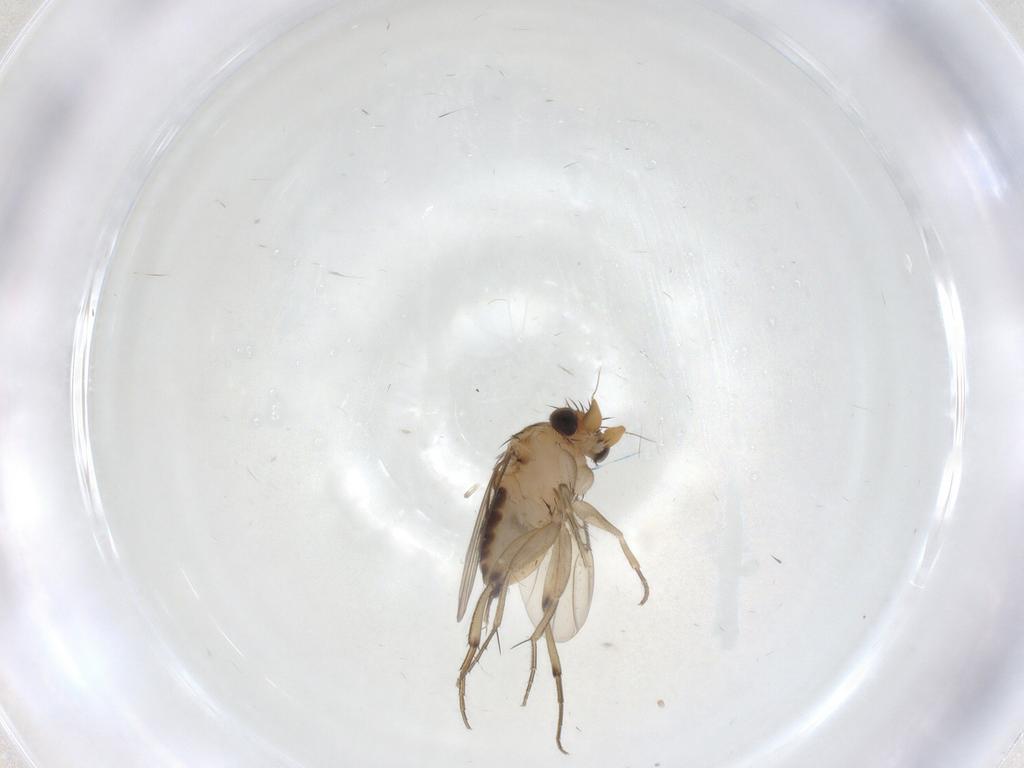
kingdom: Animalia
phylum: Arthropoda
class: Insecta
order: Diptera
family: Phoridae
